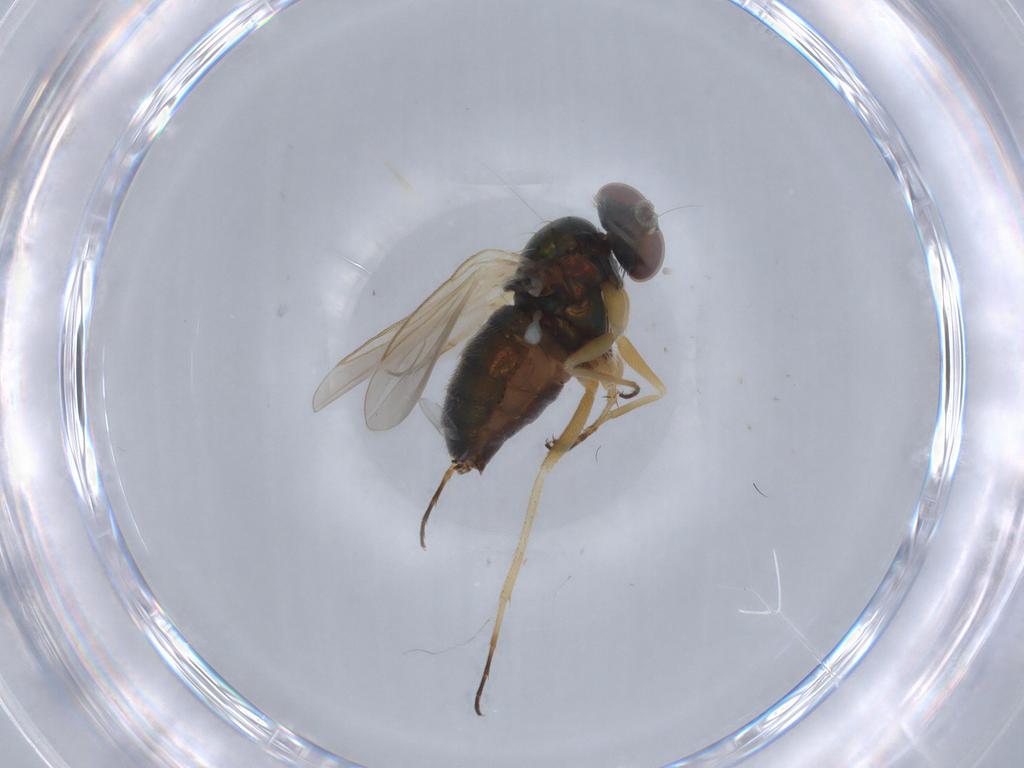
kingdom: Animalia
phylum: Arthropoda
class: Insecta
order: Diptera
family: Dolichopodidae
